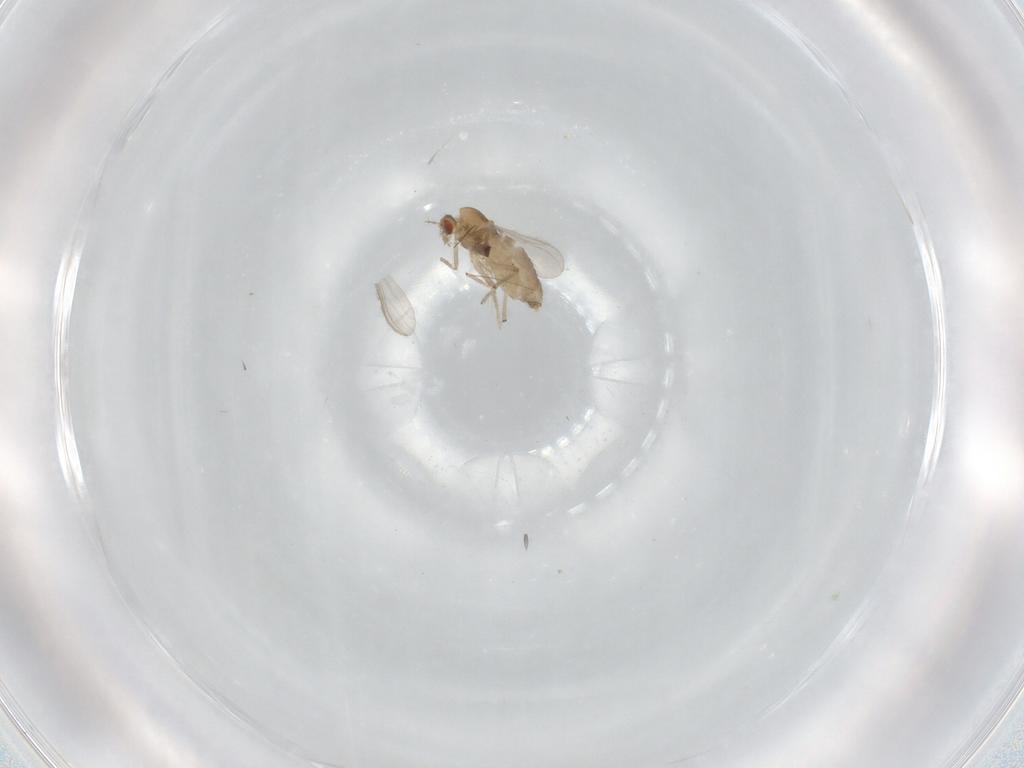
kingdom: Animalia
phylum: Arthropoda
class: Insecta
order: Diptera
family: Chironomidae
